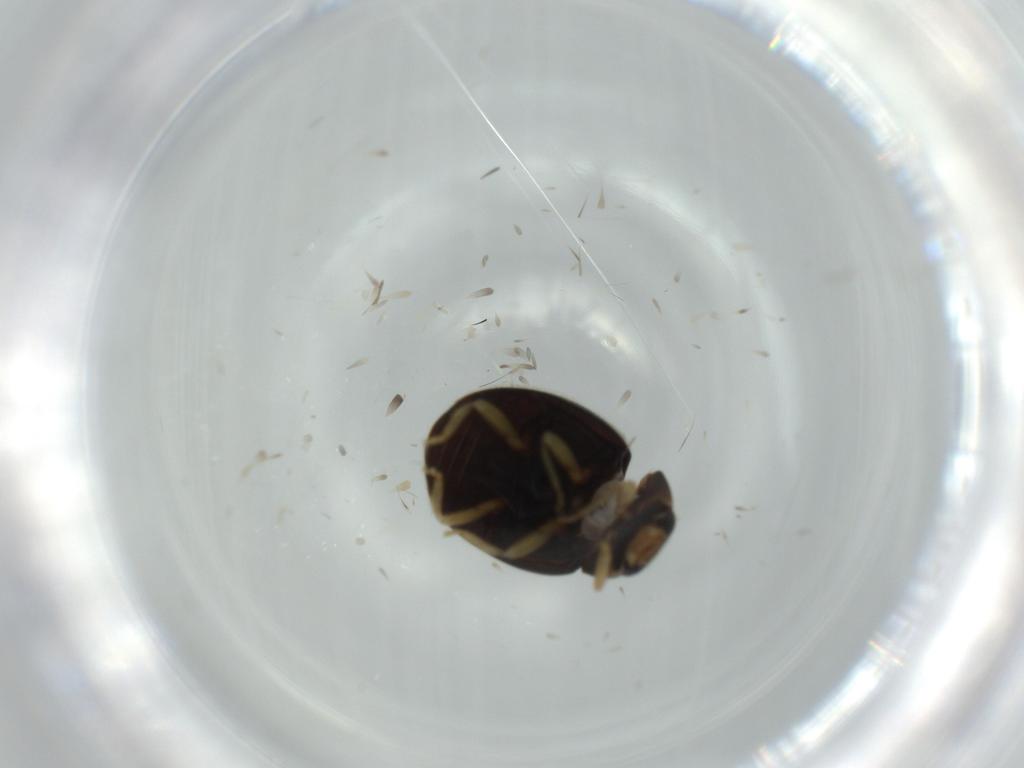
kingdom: Animalia
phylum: Arthropoda
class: Insecta
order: Coleoptera
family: Coccinellidae
